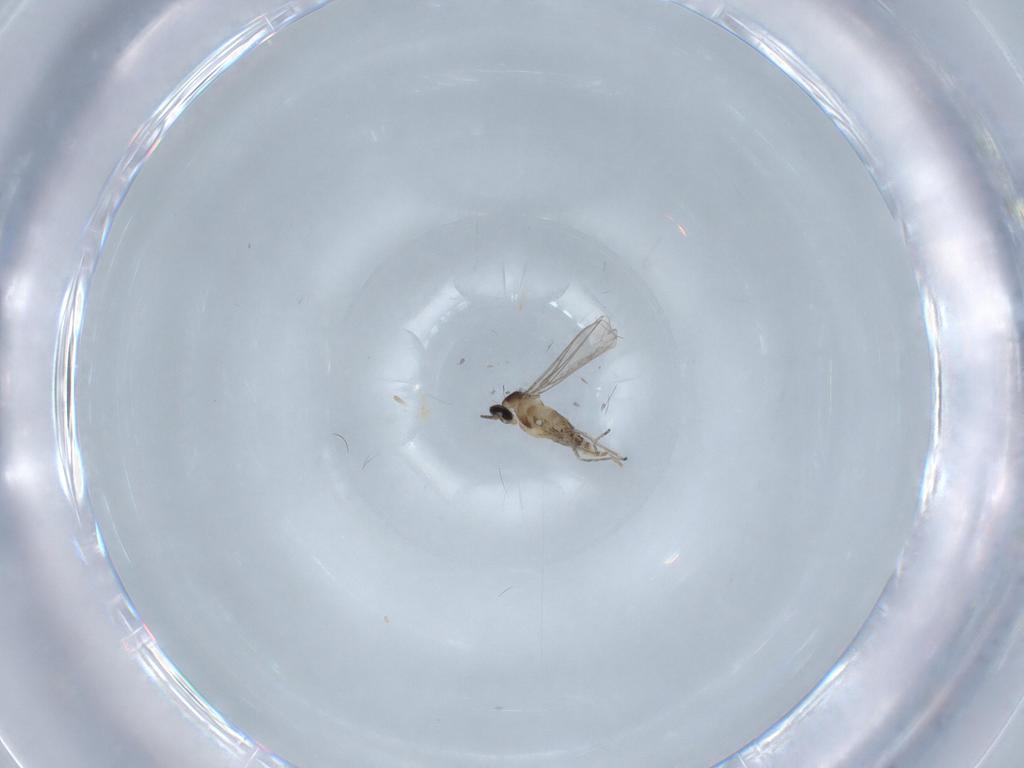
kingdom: Animalia
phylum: Arthropoda
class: Insecta
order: Diptera
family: Cecidomyiidae
